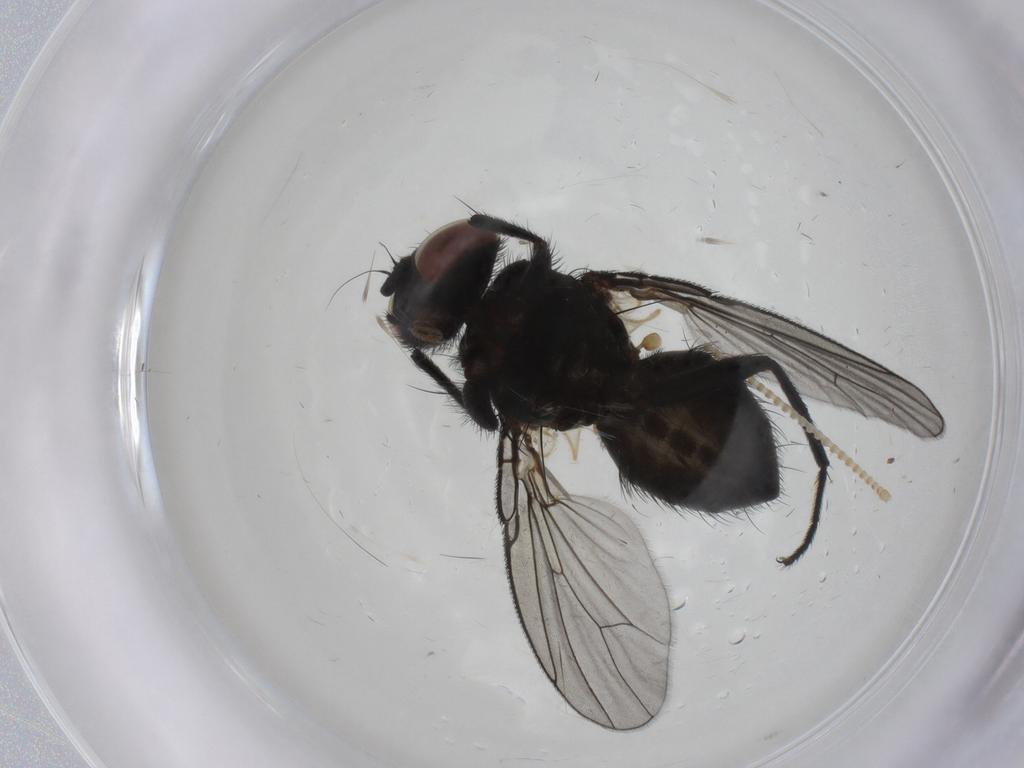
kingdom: Animalia
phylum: Arthropoda
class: Insecta
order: Diptera
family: Muscidae
